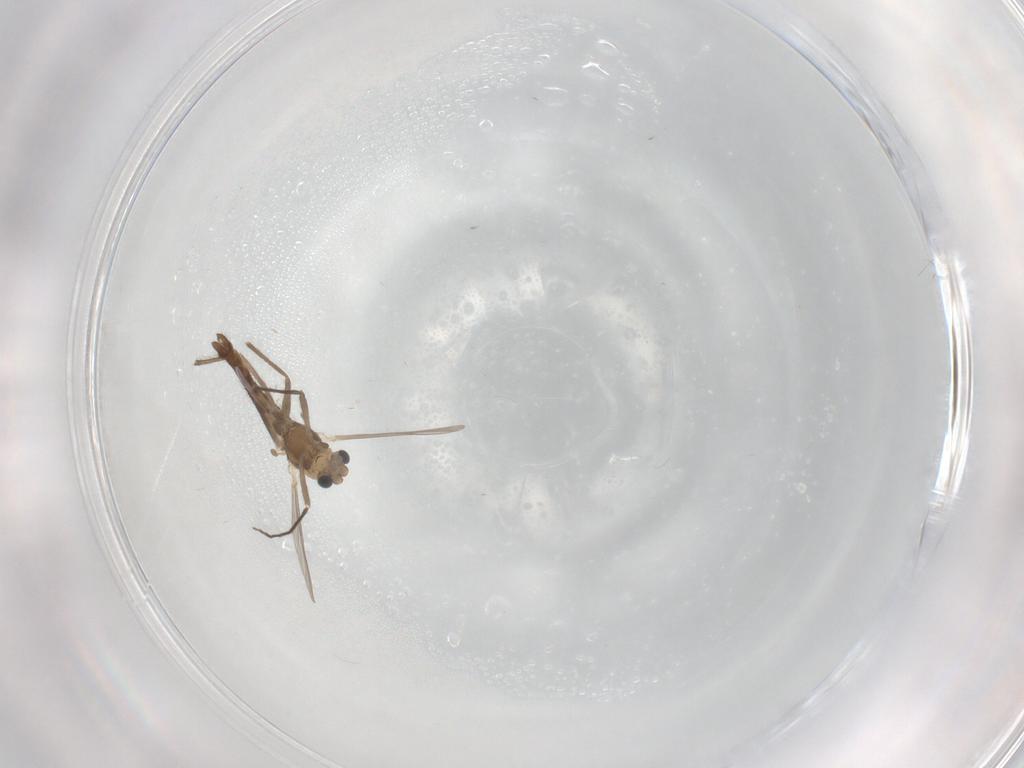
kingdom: Animalia
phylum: Arthropoda
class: Insecta
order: Diptera
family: Chironomidae
